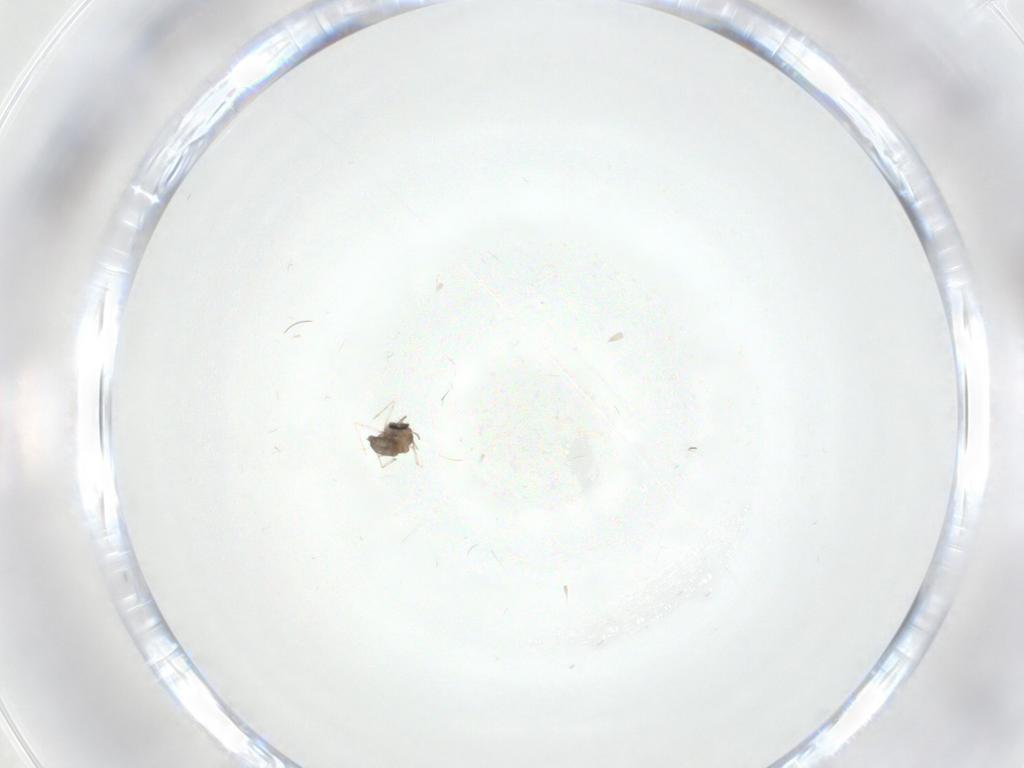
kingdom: Animalia
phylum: Arthropoda
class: Insecta
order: Diptera
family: Cecidomyiidae
